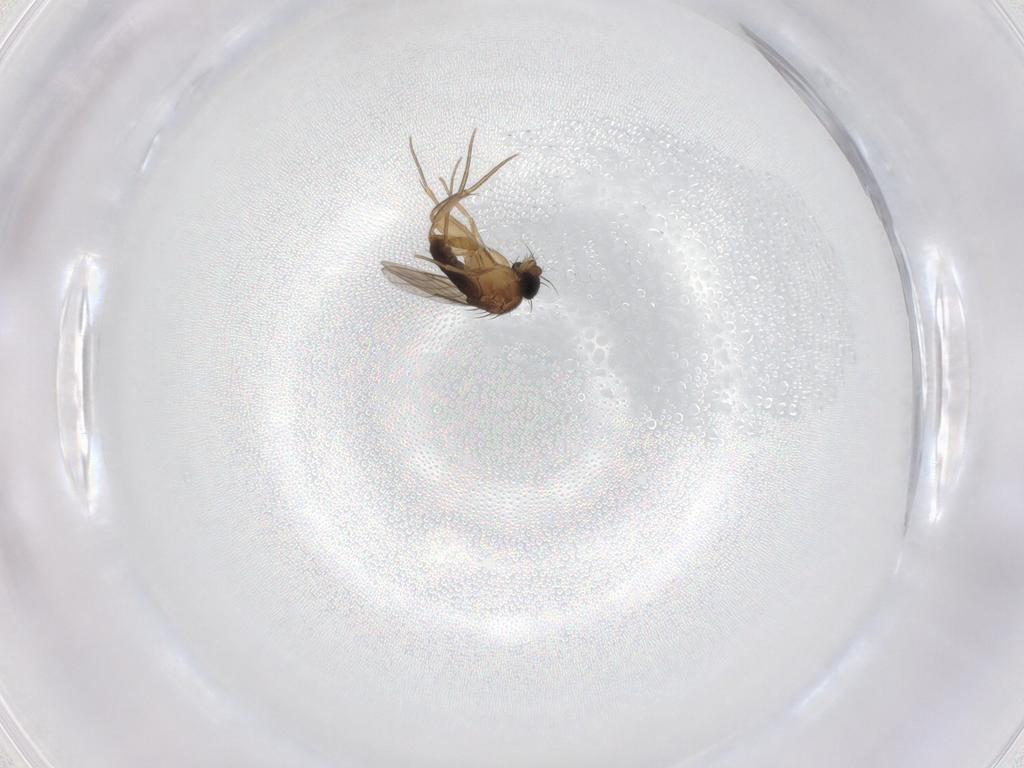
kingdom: Animalia
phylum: Arthropoda
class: Insecta
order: Diptera
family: Phoridae
